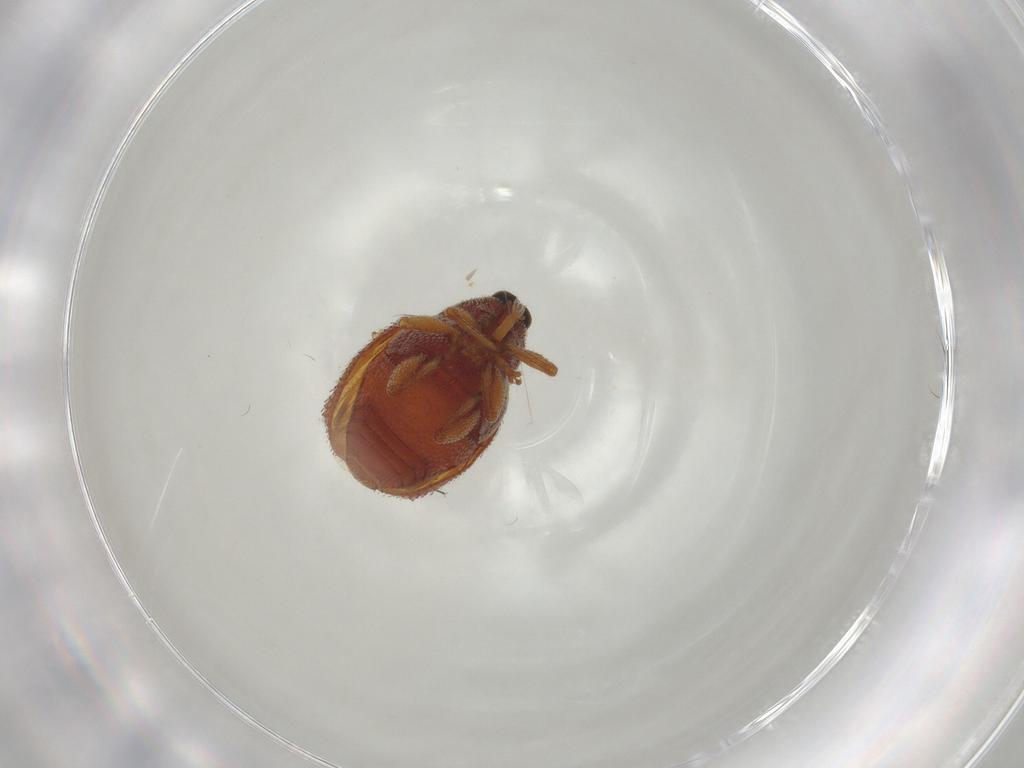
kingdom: Animalia
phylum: Arthropoda
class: Insecta
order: Coleoptera
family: Curculionidae
